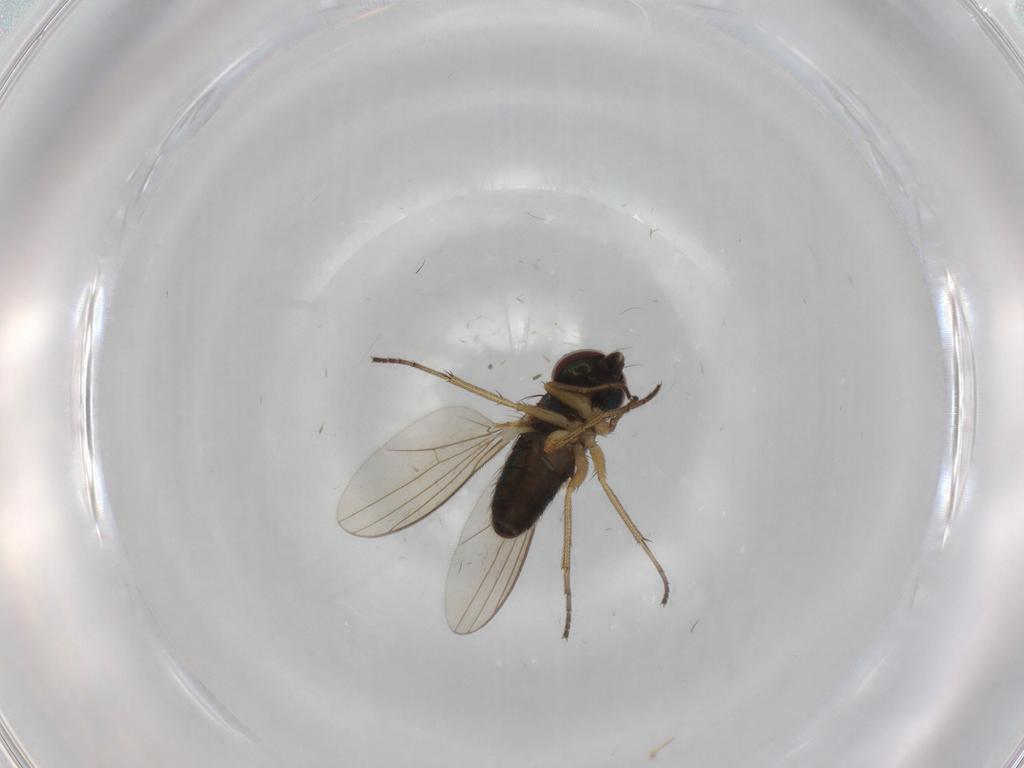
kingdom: Animalia
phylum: Arthropoda
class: Insecta
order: Diptera
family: Dolichopodidae
